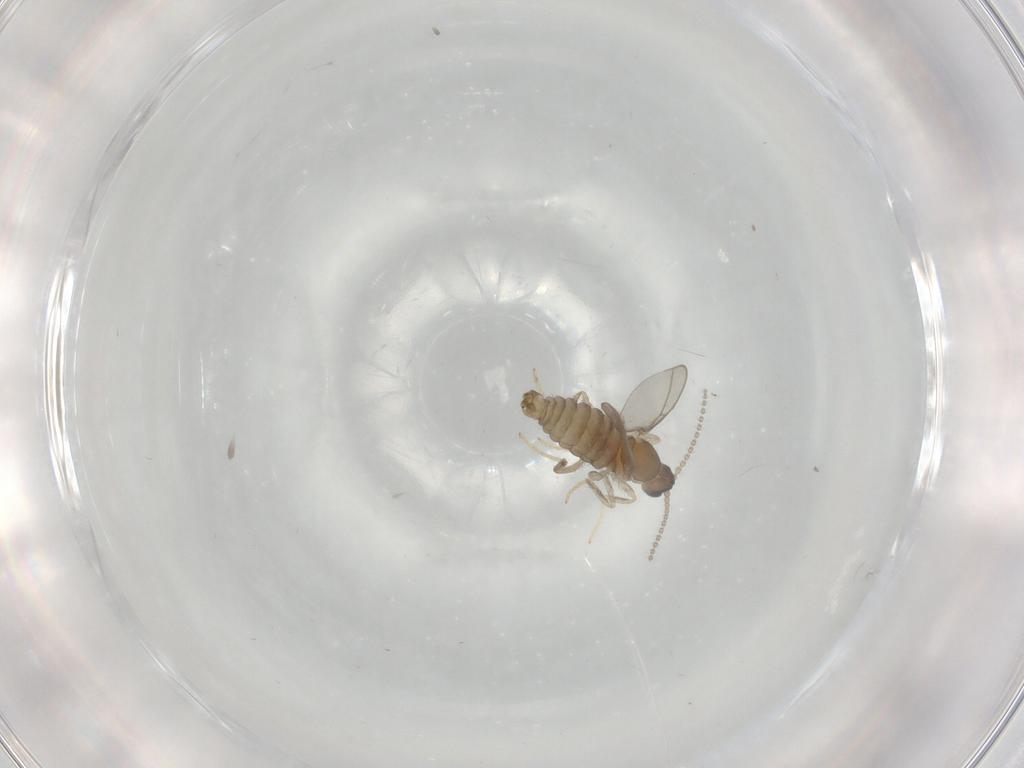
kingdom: Animalia
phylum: Arthropoda
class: Insecta
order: Diptera
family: Cecidomyiidae
